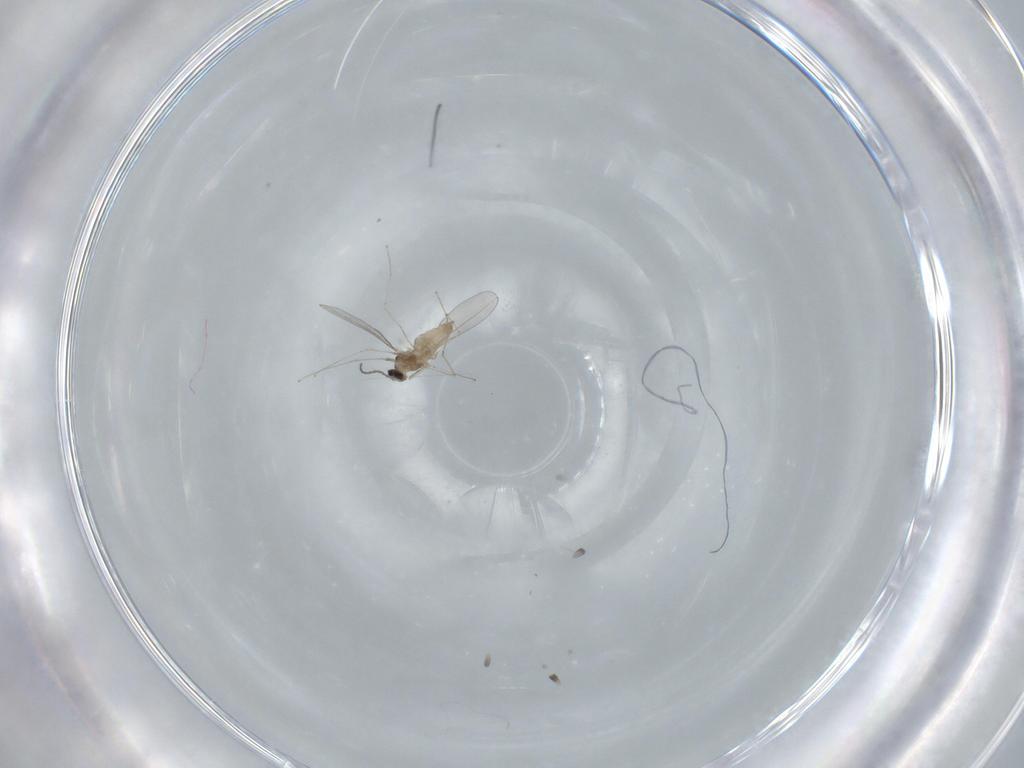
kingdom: Animalia
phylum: Arthropoda
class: Insecta
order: Diptera
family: Cecidomyiidae
